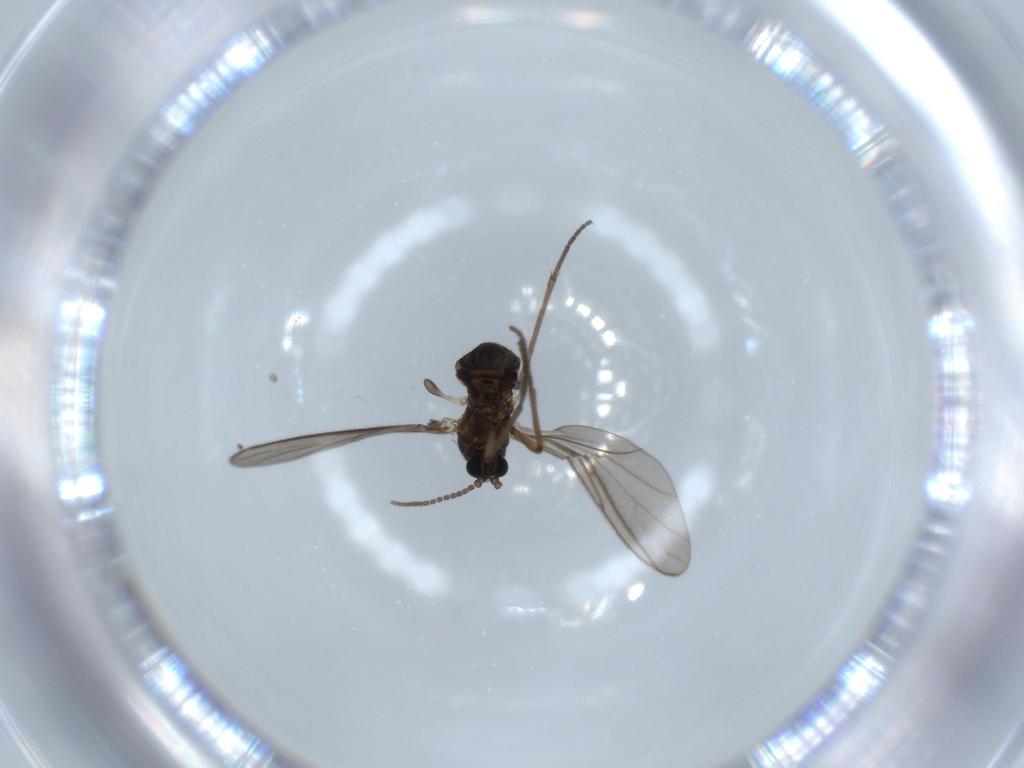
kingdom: Animalia
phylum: Arthropoda
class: Insecta
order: Diptera
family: Sciaridae
